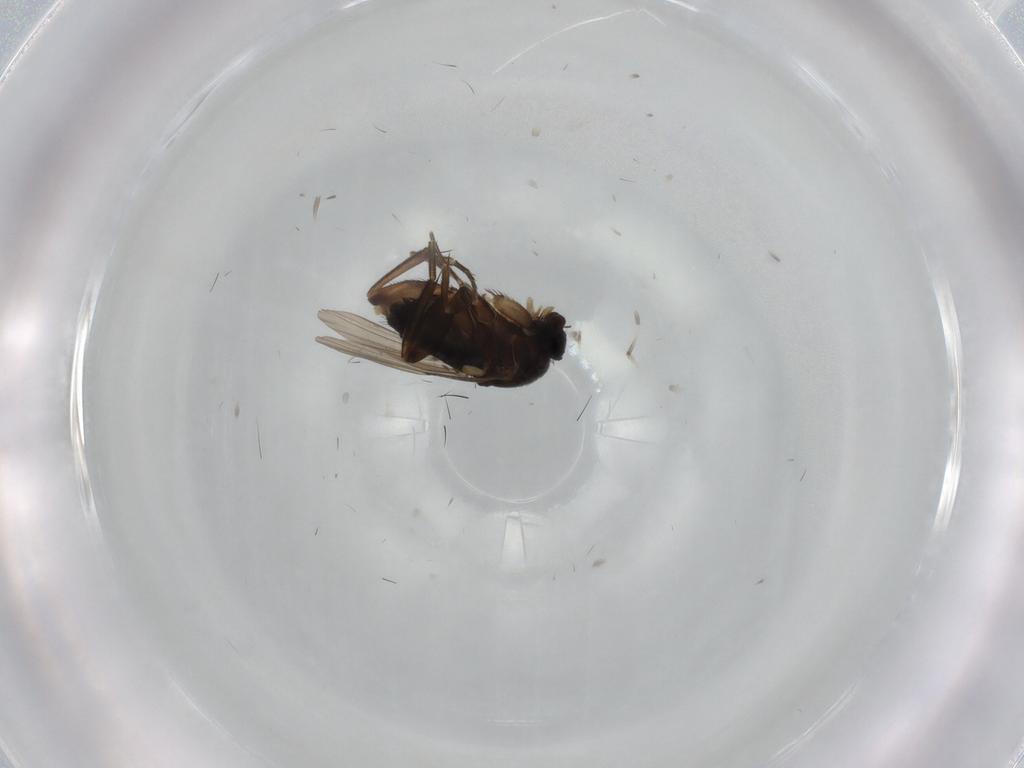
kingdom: Animalia
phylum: Arthropoda
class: Insecta
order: Diptera
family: Phoridae
